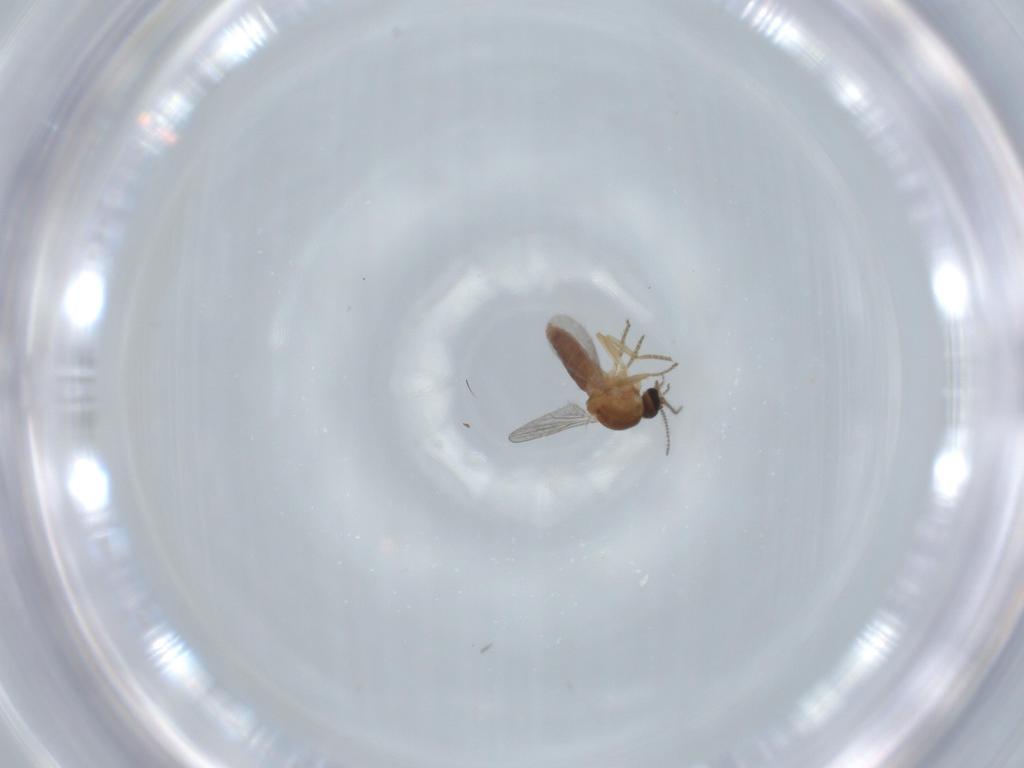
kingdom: Animalia
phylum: Arthropoda
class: Insecta
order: Diptera
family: Ceratopogonidae
